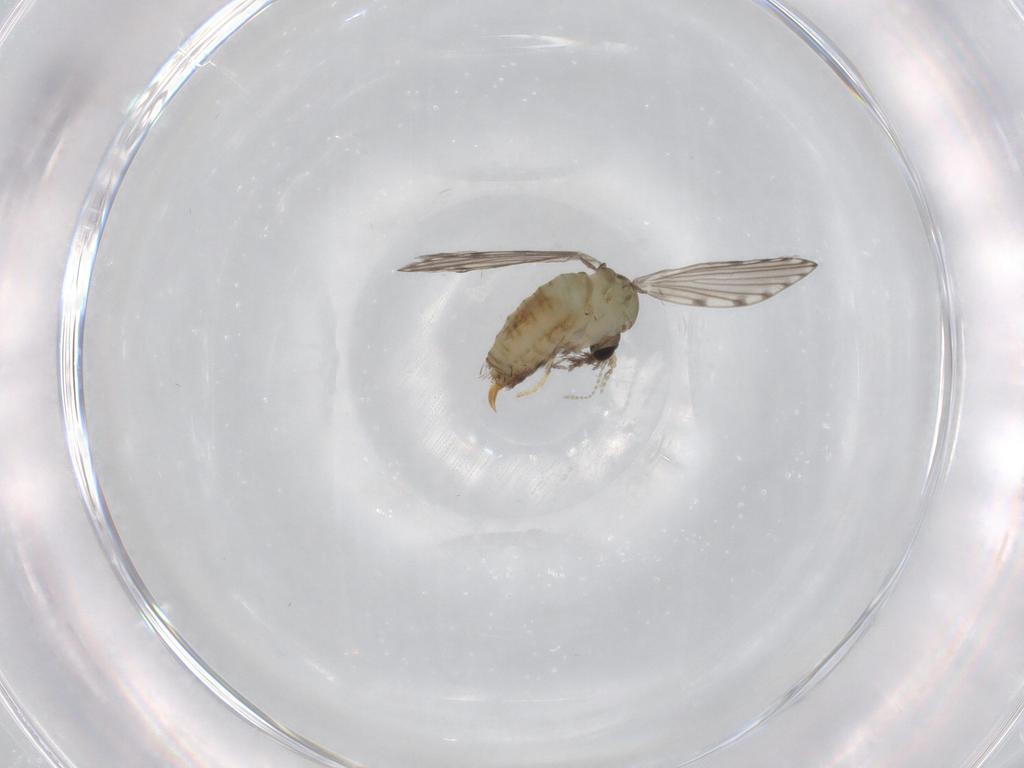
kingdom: Animalia
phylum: Arthropoda
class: Insecta
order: Diptera
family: Psychodidae
